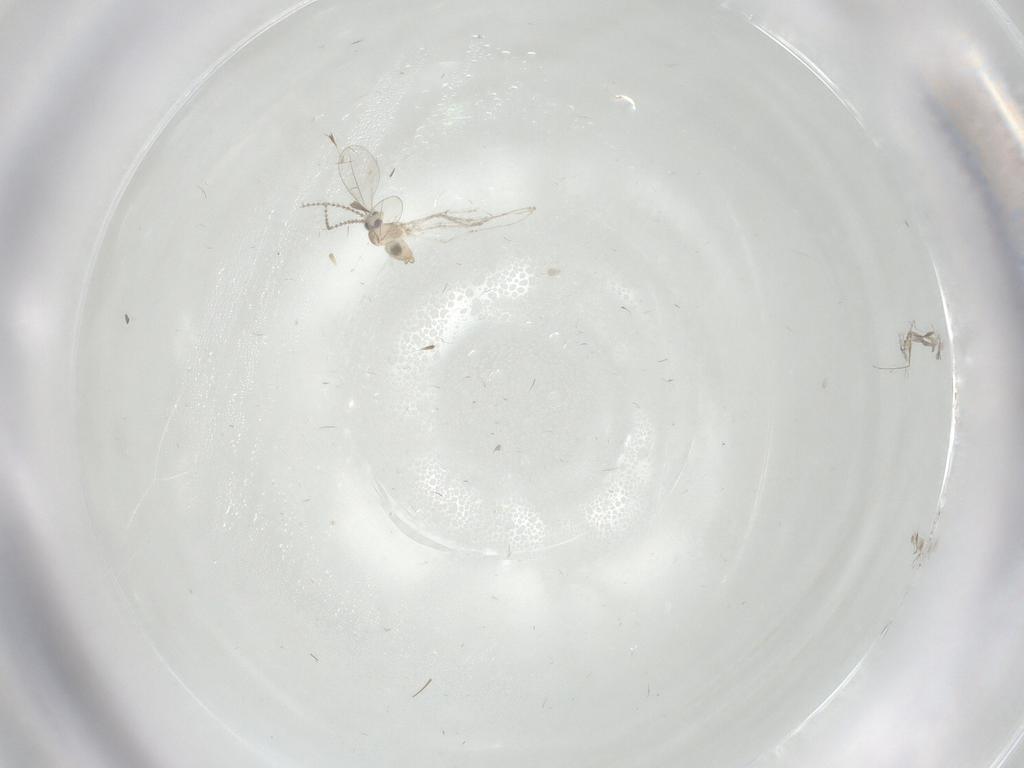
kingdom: Animalia
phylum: Arthropoda
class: Insecta
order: Diptera
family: Cecidomyiidae
